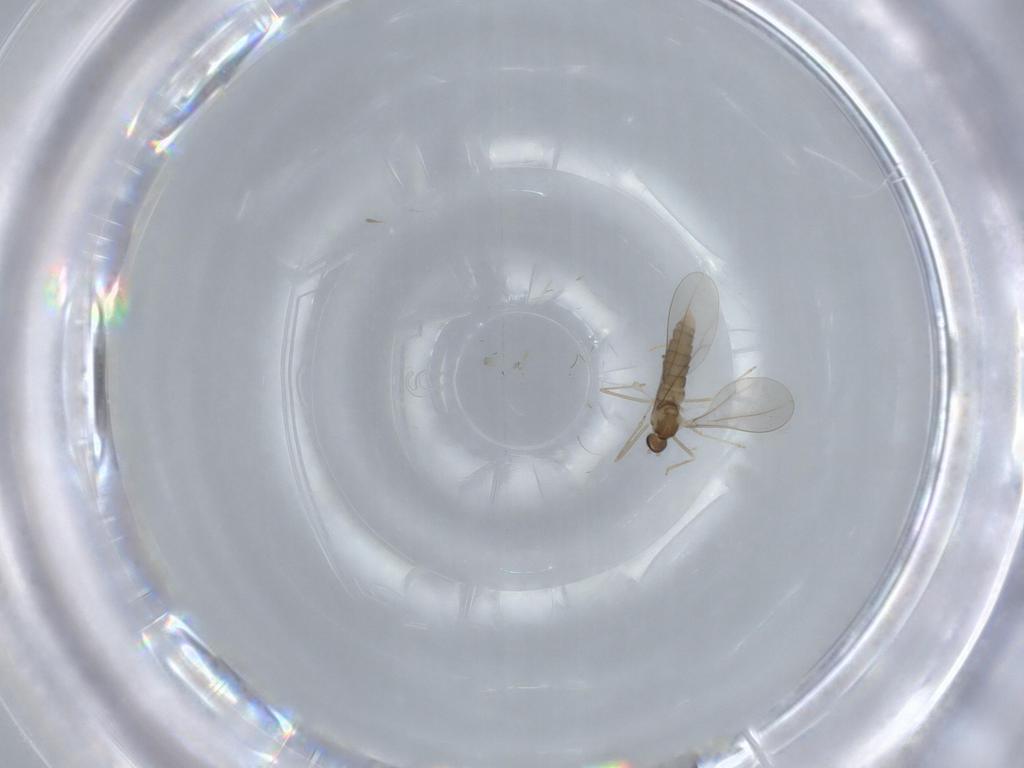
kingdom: Animalia
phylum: Arthropoda
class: Insecta
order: Diptera
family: Cecidomyiidae
